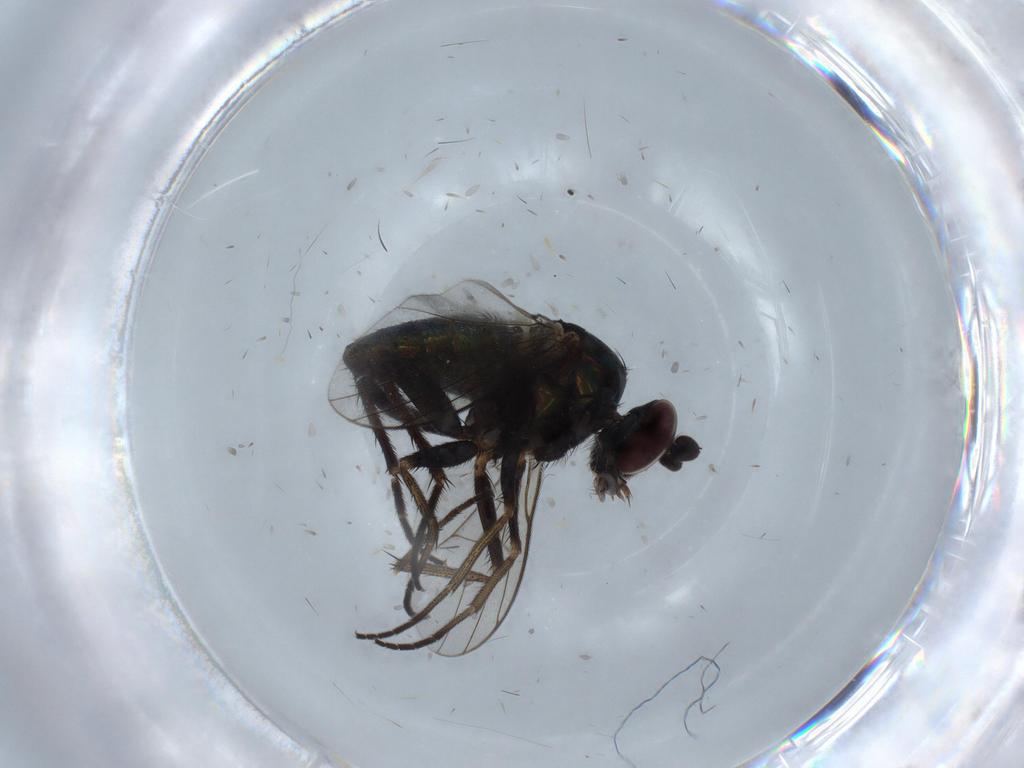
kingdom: Animalia
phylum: Arthropoda
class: Insecta
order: Diptera
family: Dolichopodidae
